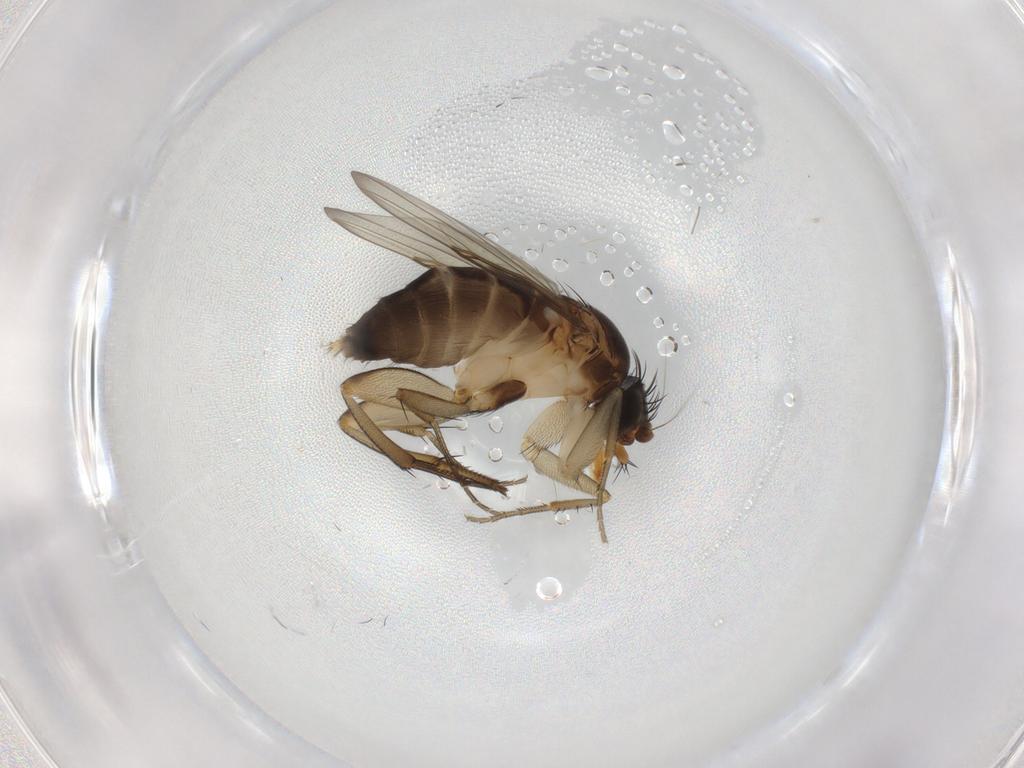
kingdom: Animalia
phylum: Arthropoda
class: Insecta
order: Diptera
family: Phoridae
